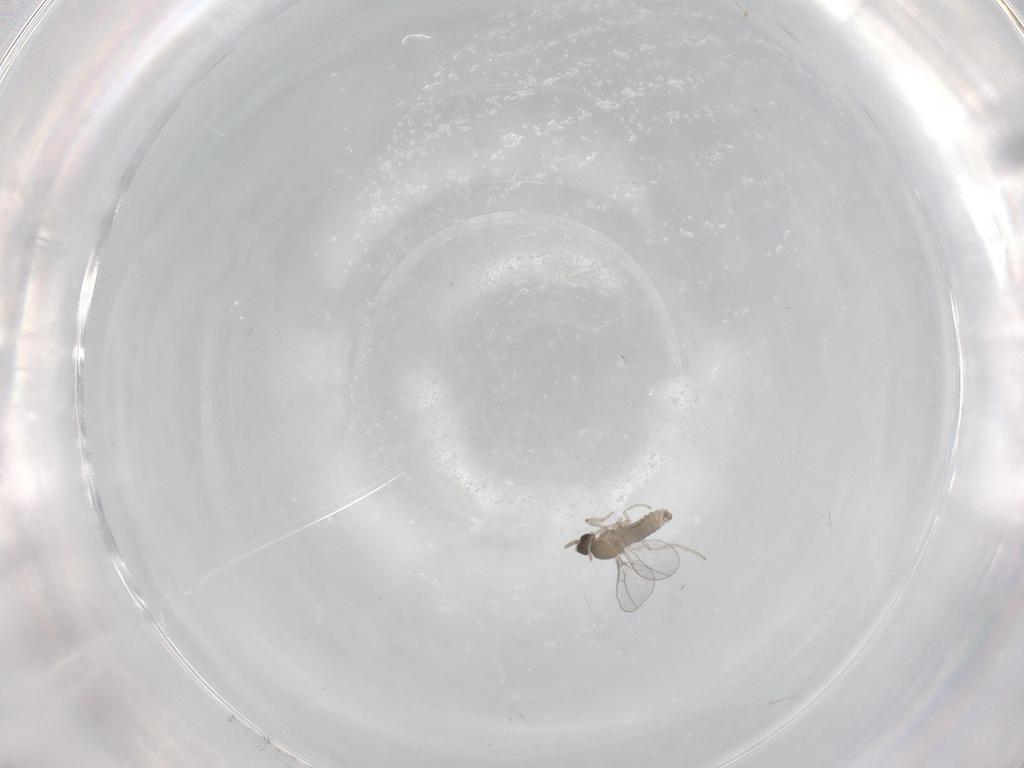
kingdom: Animalia
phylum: Arthropoda
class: Insecta
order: Diptera
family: Cecidomyiidae
